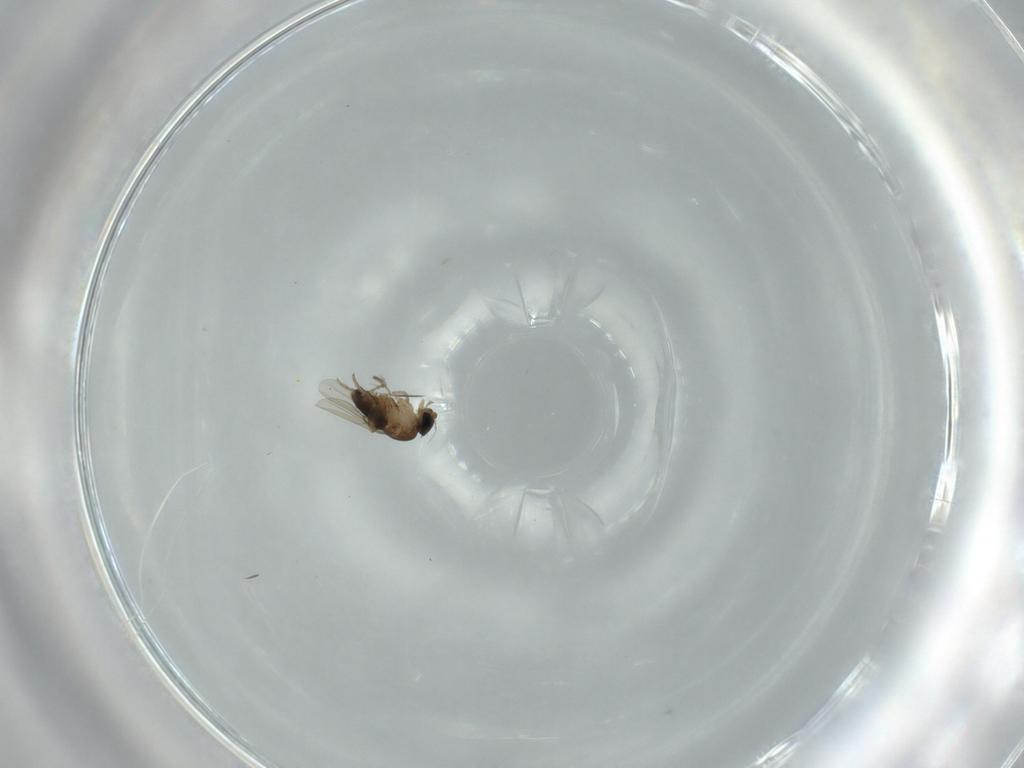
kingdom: Animalia
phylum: Arthropoda
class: Insecta
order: Diptera
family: Phoridae
